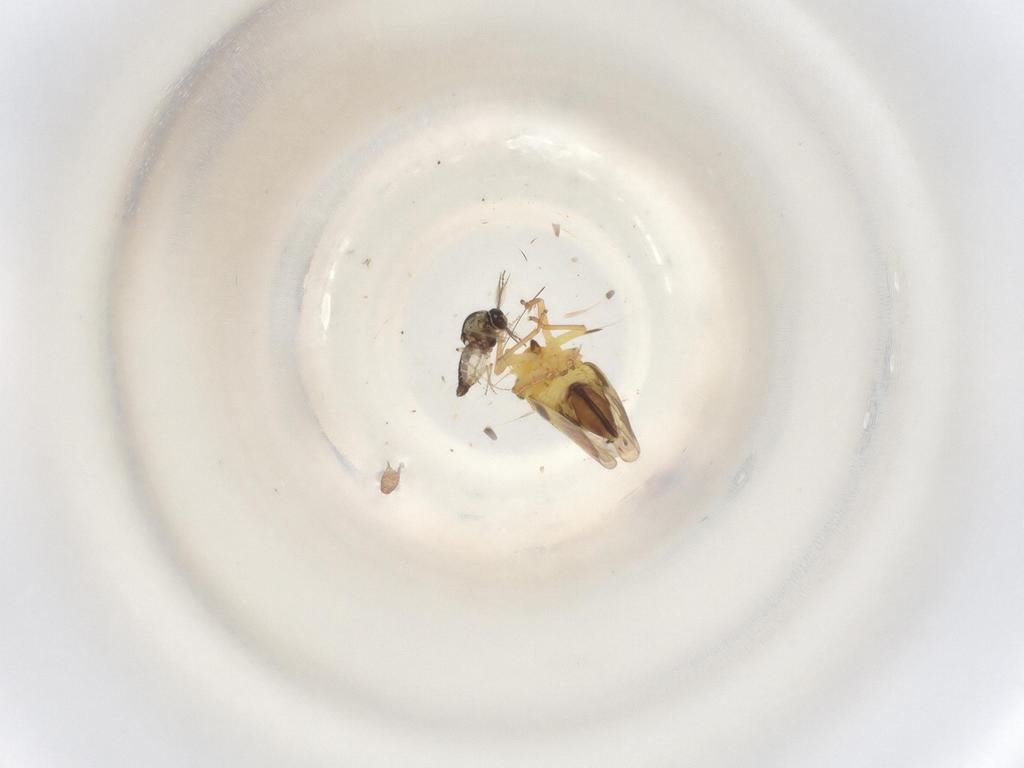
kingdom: Animalia
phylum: Arthropoda
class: Insecta
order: Diptera
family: Ceratopogonidae
